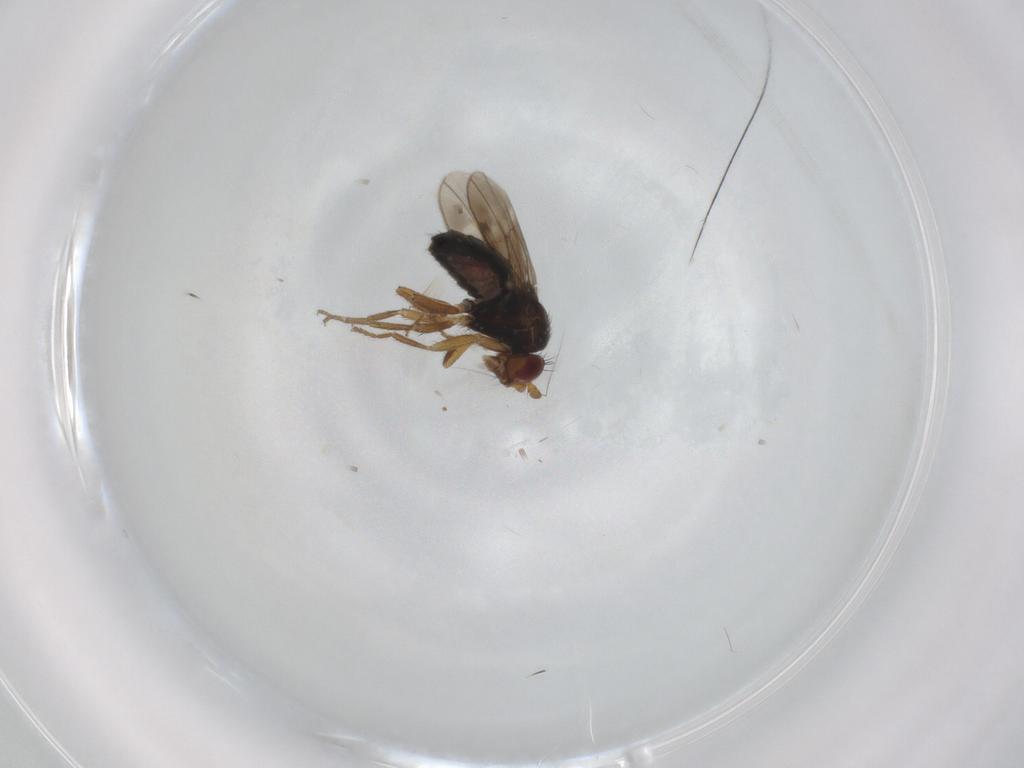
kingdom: Animalia
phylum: Arthropoda
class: Insecta
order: Diptera
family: Sphaeroceridae
